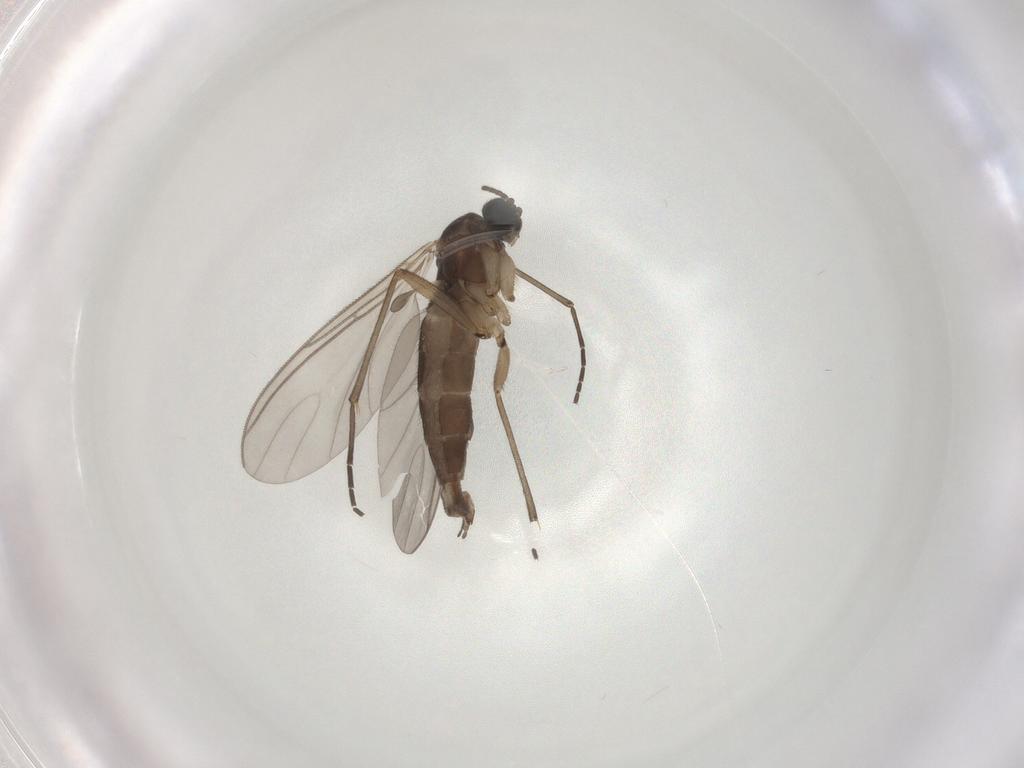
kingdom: Animalia
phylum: Arthropoda
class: Insecta
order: Diptera
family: Sciaridae
